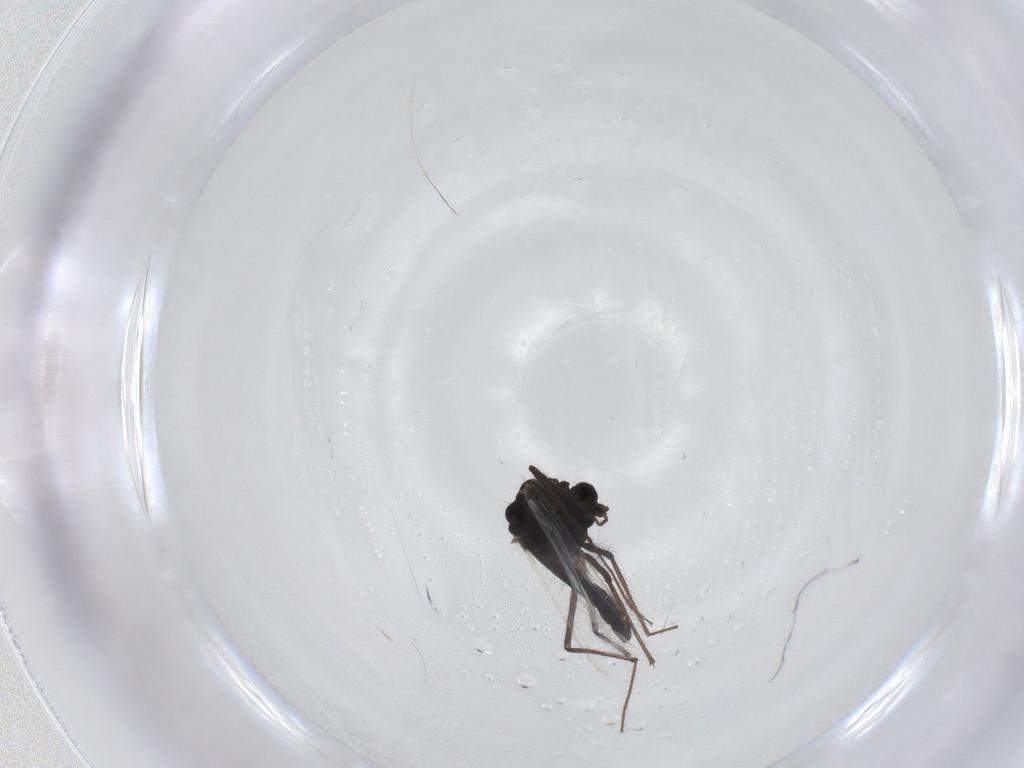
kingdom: Animalia
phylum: Arthropoda
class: Insecta
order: Diptera
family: Chironomidae
